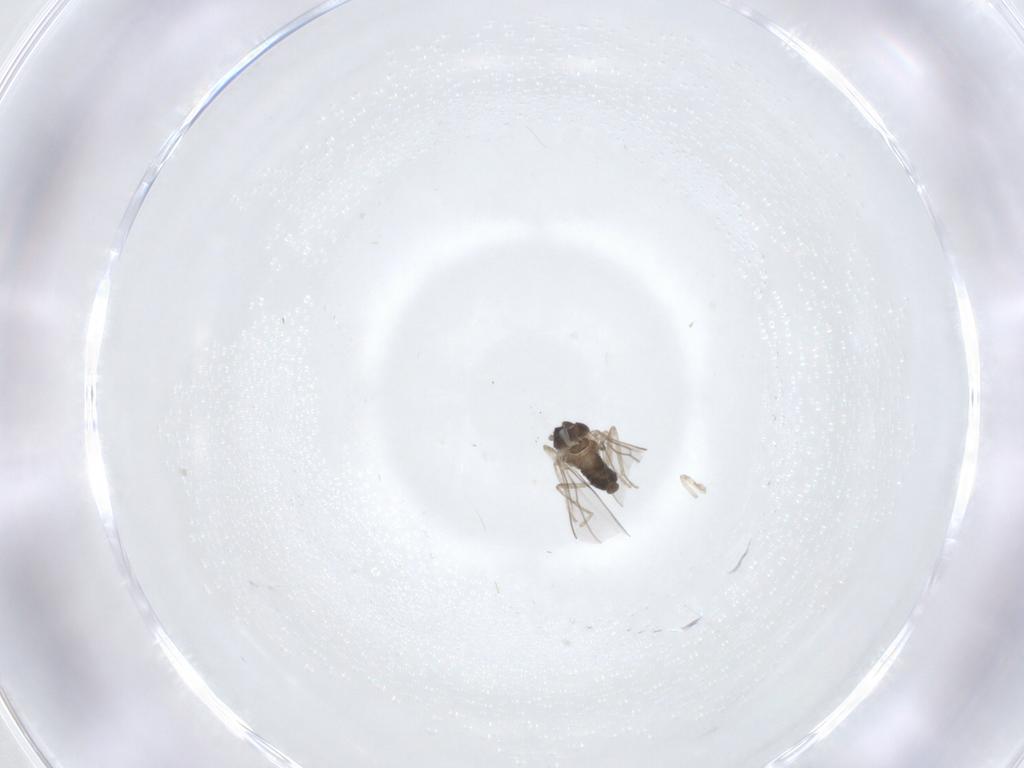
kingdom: Animalia
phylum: Arthropoda
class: Insecta
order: Diptera
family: Cecidomyiidae
